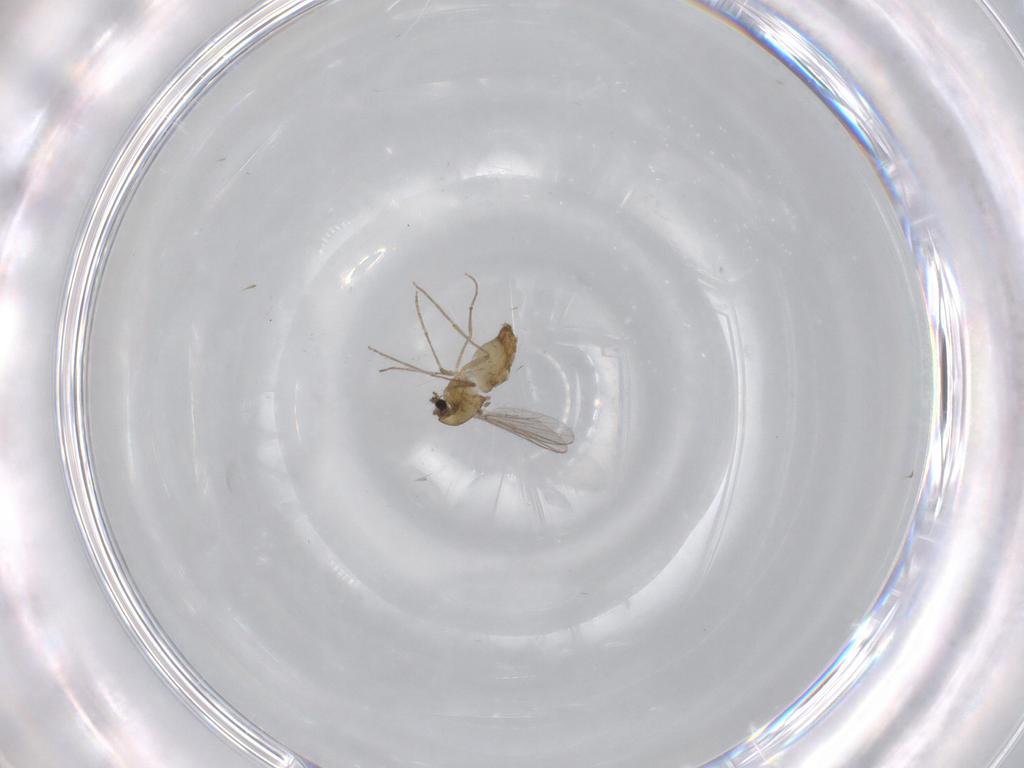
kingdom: Animalia
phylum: Arthropoda
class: Insecta
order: Diptera
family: Chironomidae
